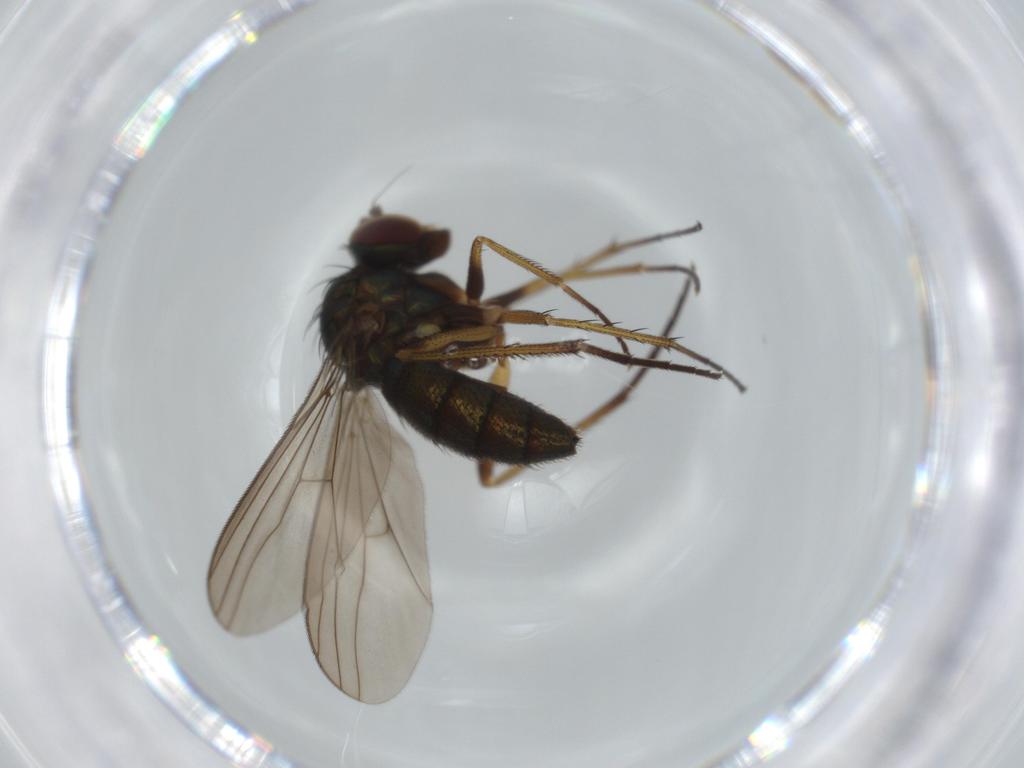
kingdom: Animalia
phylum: Arthropoda
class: Insecta
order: Diptera
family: Dolichopodidae
